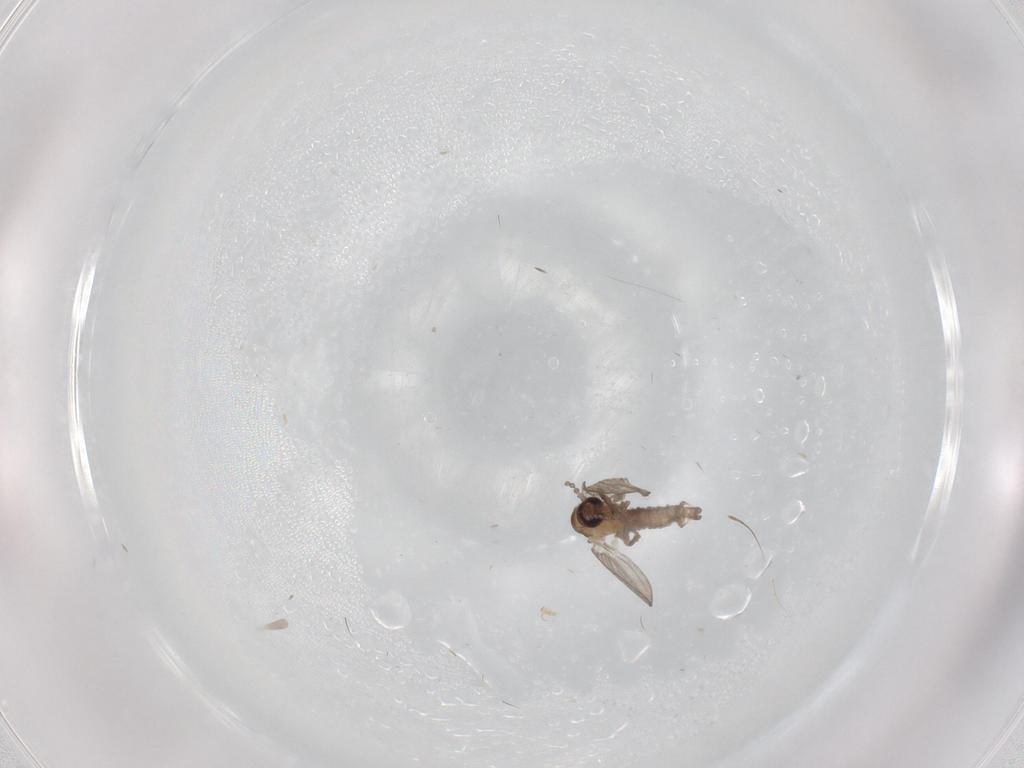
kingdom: Animalia
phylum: Arthropoda
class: Insecta
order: Diptera
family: Psychodidae
